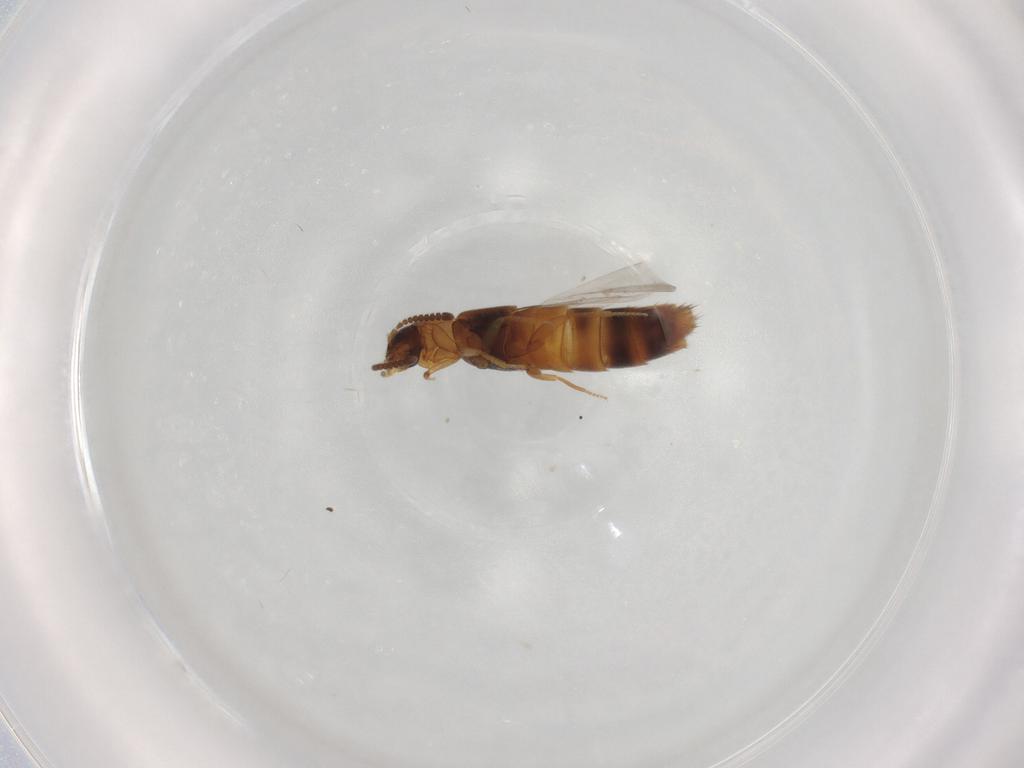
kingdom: Animalia
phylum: Arthropoda
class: Insecta
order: Coleoptera
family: Staphylinidae
